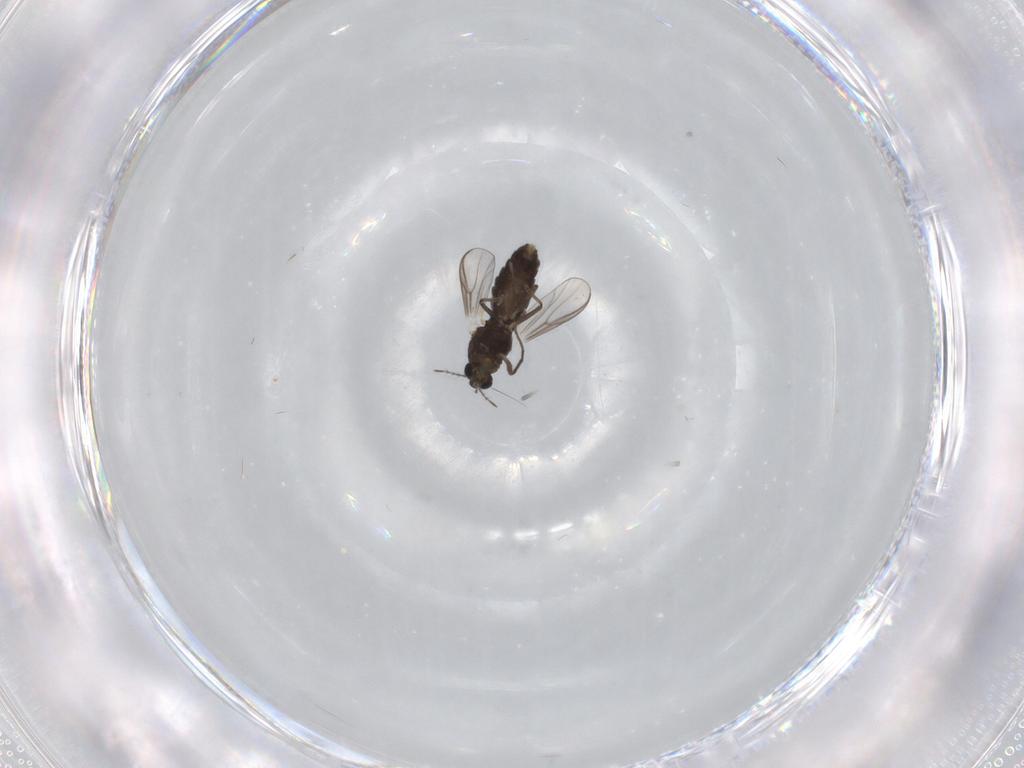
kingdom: Animalia
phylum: Arthropoda
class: Insecta
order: Diptera
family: Chironomidae
